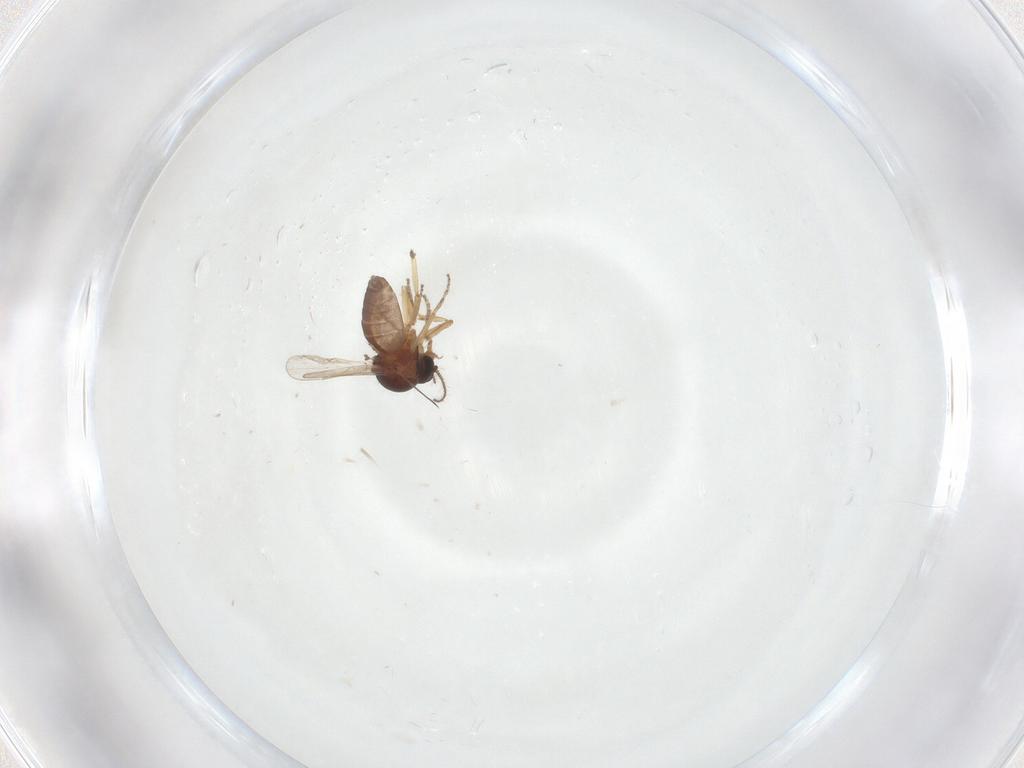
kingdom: Animalia
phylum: Arthropoda
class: Insecta
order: Diptera
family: Ceratopogonidae
